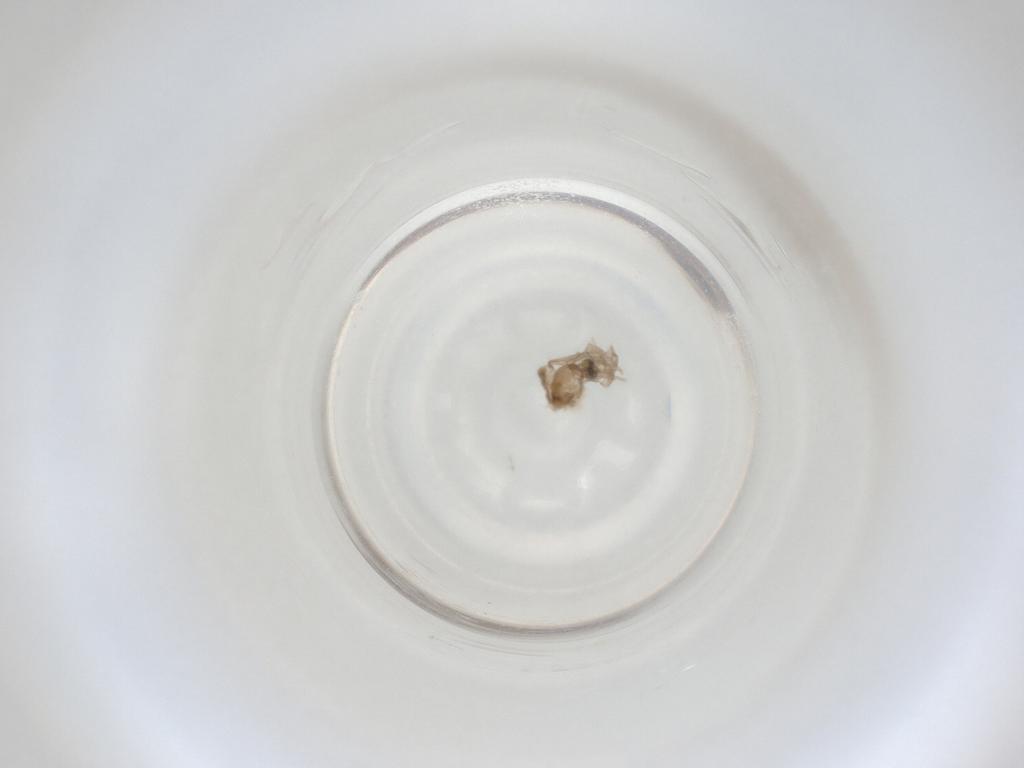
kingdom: Animalia
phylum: Arthropoda
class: Insecta
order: Diptera
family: Cecidomyiidae
